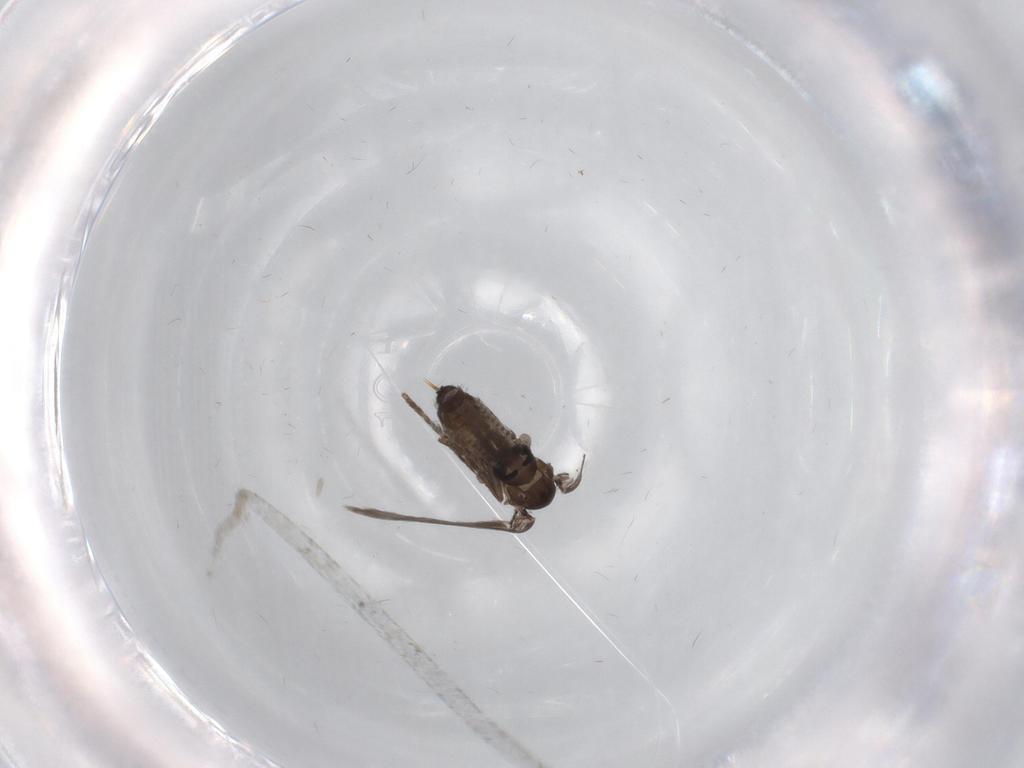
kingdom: Animalia
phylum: Arthropoda
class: Insecta
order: Diptera
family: Psychodidae
